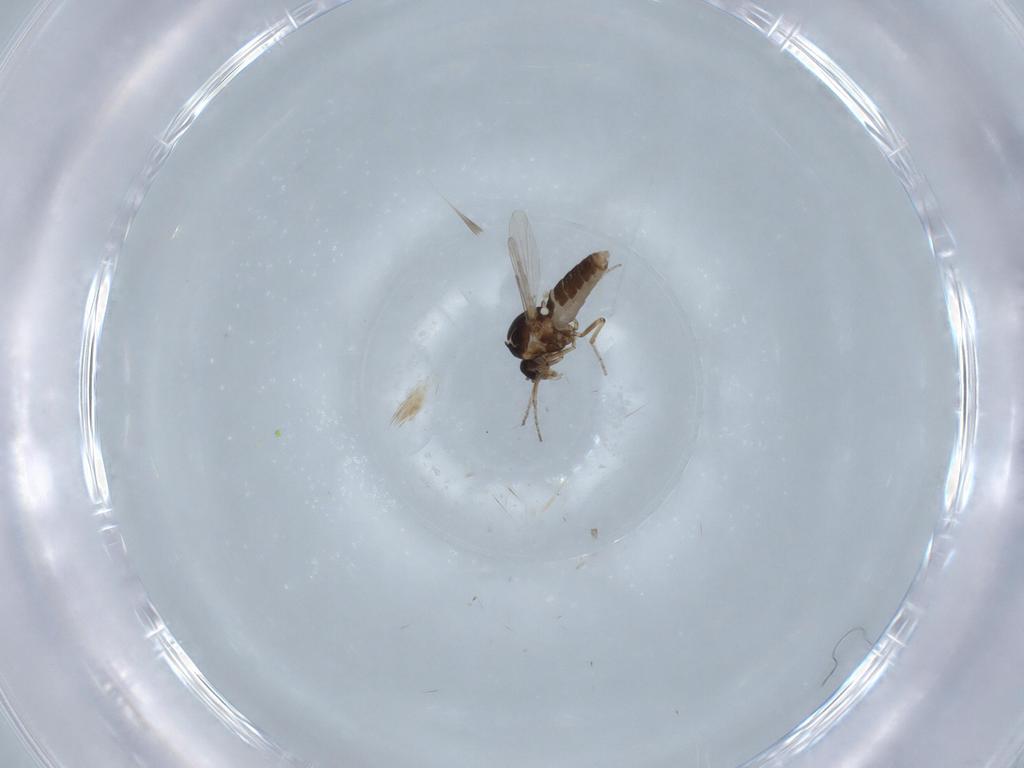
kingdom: Animalia
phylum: Arthropoda
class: Insecta
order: Diptera
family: Ceratopogonidae
